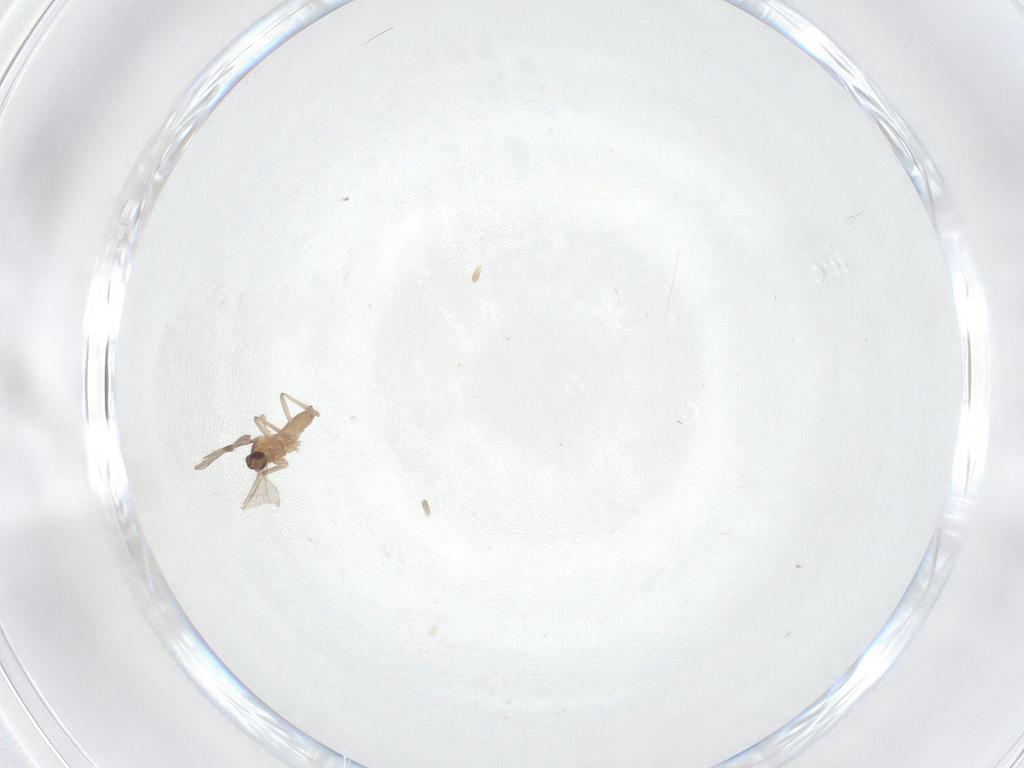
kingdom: Animalia
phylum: Arthropoda
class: Insecta
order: Diptera
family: Cecidomyiidae
